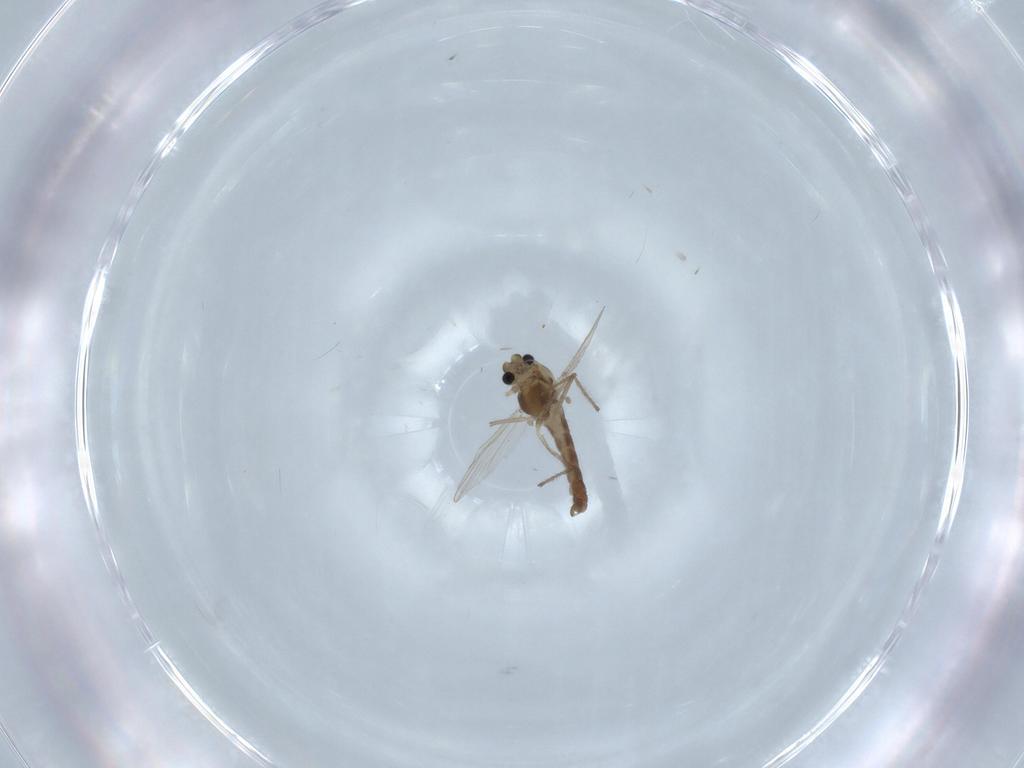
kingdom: Animalia
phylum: Arthropoda
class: Insecta
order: Diptera
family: Chironomidae
